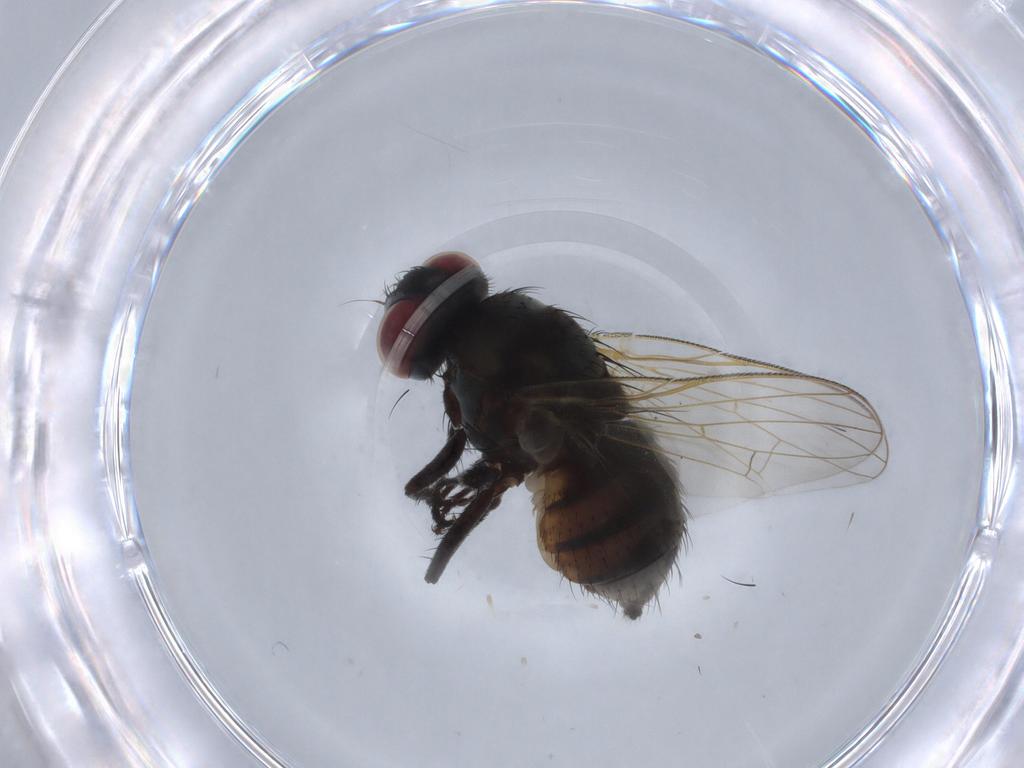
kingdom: Animalia
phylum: Arthropoda
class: Insecta
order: Diptera
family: Muscidae
